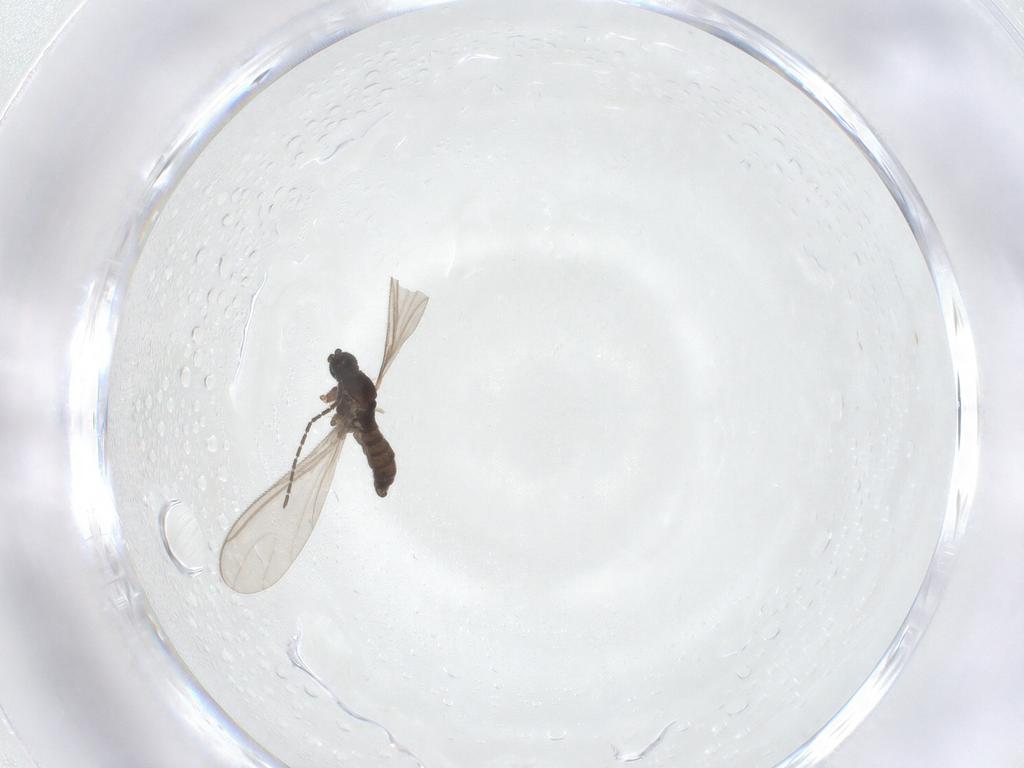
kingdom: Animalia
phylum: Arthropoda
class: Insecta
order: Diptera
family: Sciaridae
